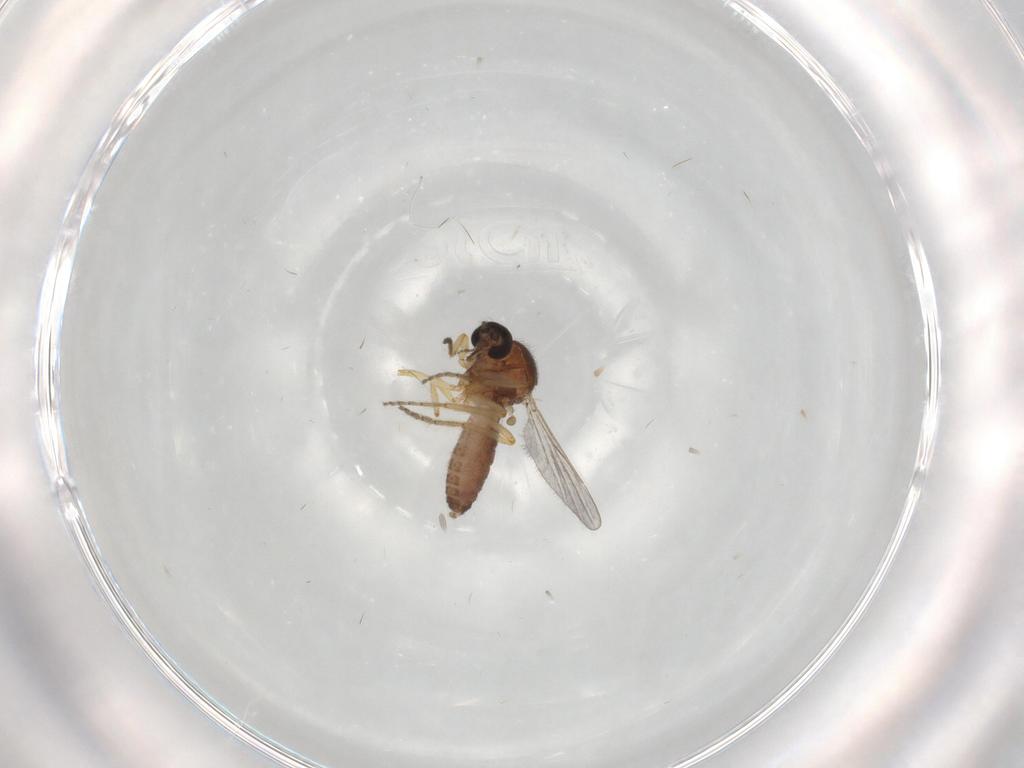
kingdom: Animalia
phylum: Arthropoda
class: Insecta
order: Diptera
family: Ceratopogonidae
